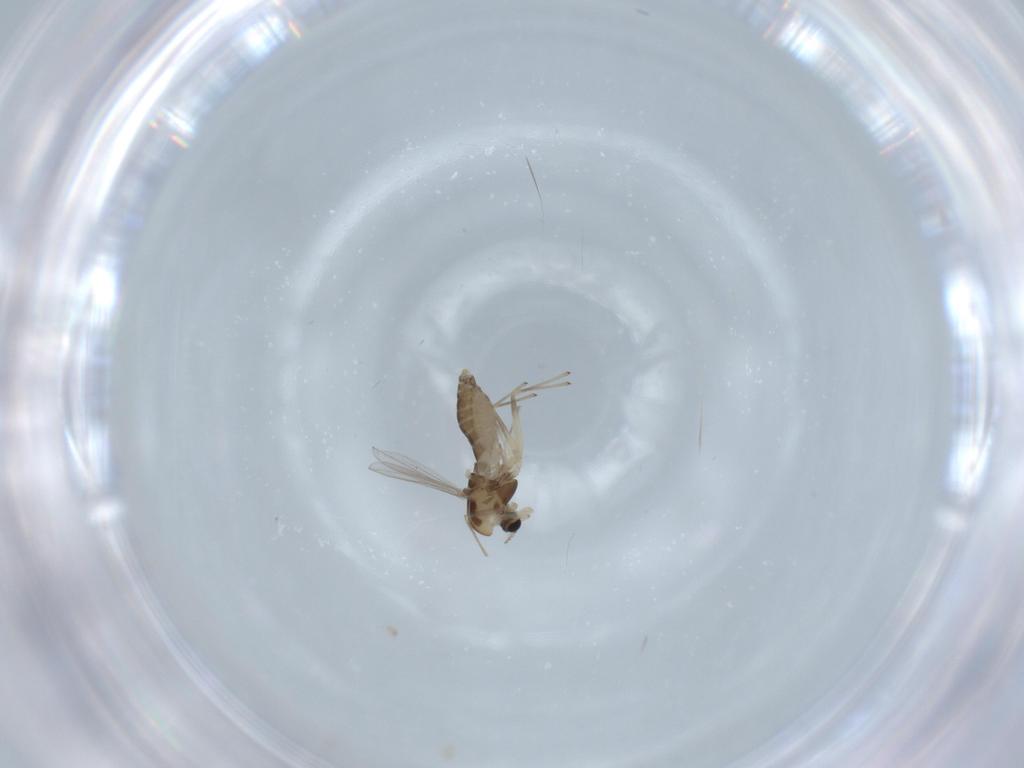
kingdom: Animalia
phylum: Arthropoda
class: Insecta
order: Diptera
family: Chironomidae
